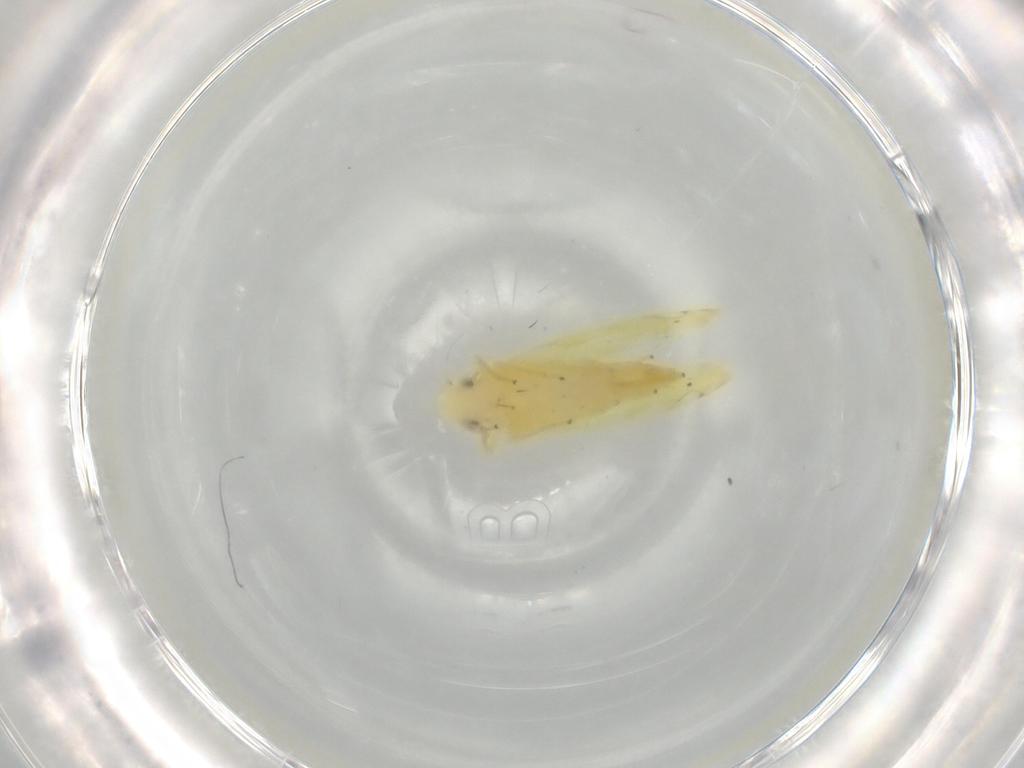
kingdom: Animalia
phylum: Arthropoda
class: Insecta
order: Hemiptera
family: Cicadellidae
